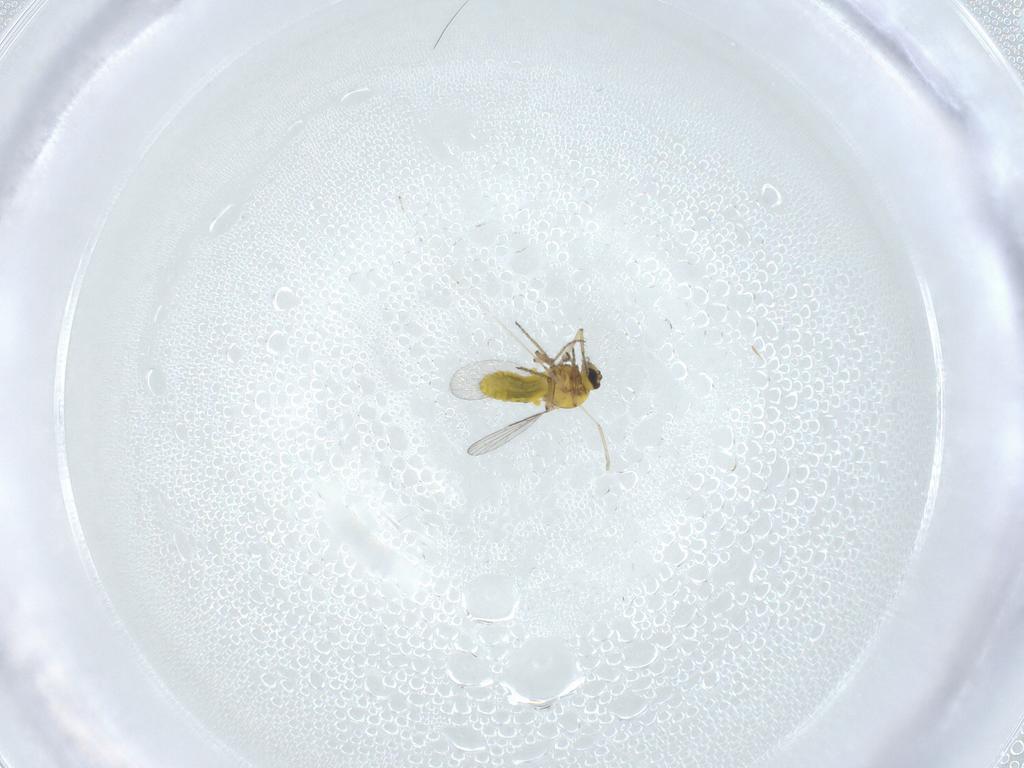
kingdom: Animalia
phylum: Arthropoda
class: Insecta
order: Diptera
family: Ceratopogonidae
